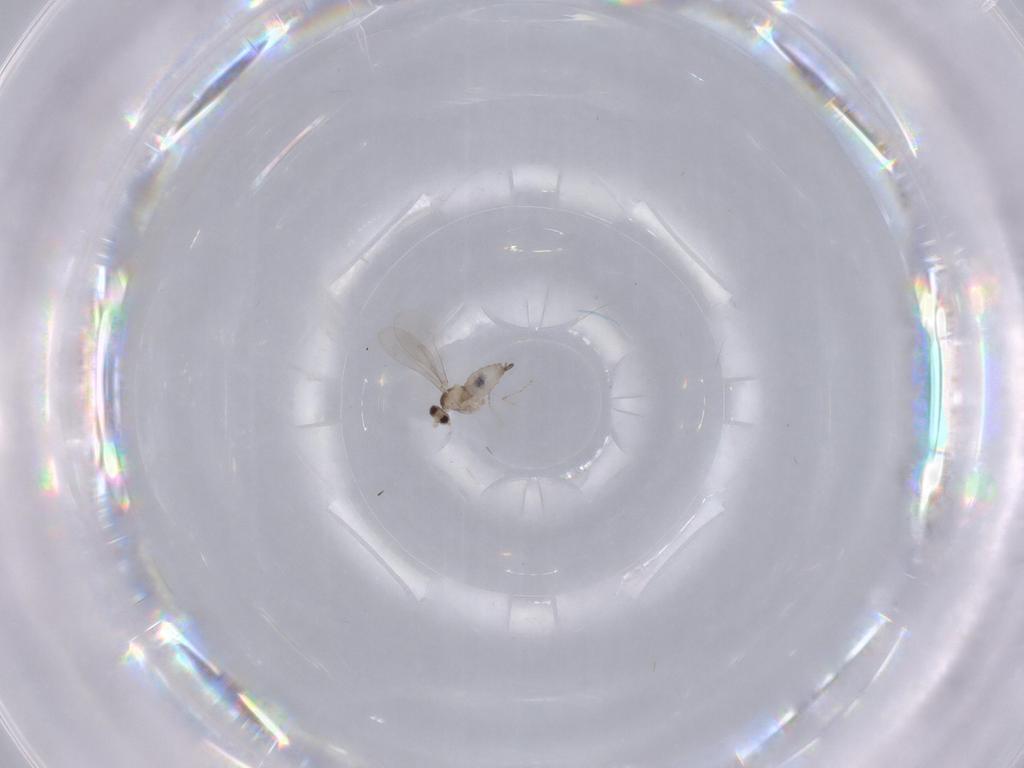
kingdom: Animalia
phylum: Arthropoda
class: Insecta
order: Diptera
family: Cecidomyiidae
